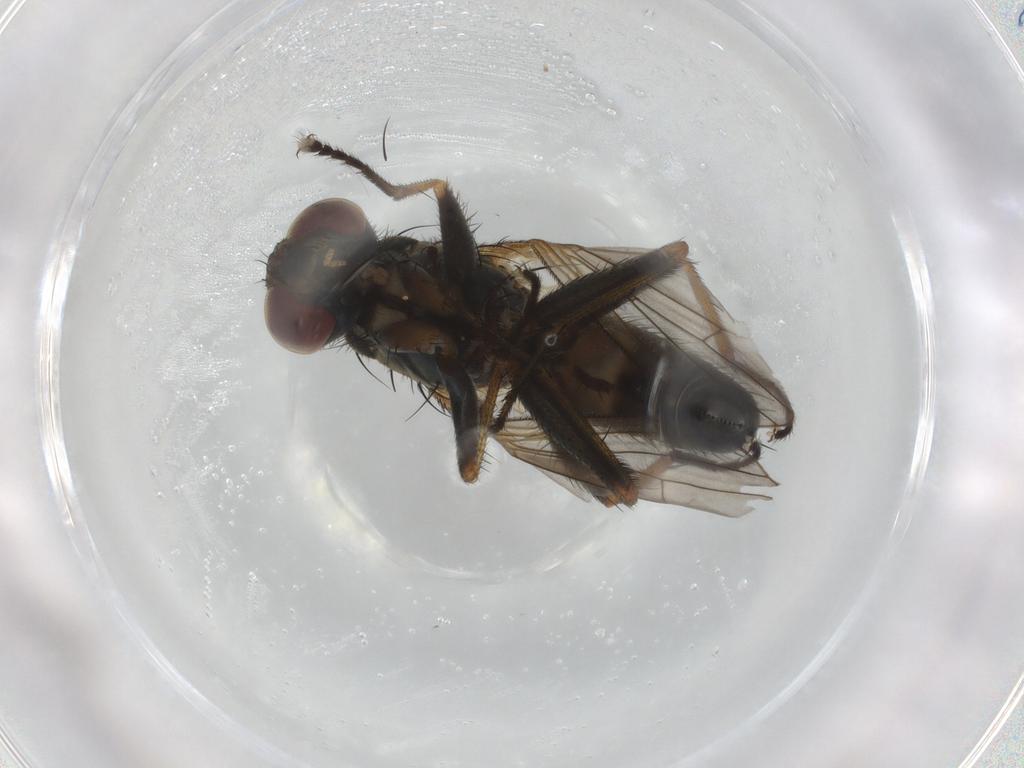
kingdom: Animalia
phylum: Arthropoda
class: Insecta
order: Diptera
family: Muscidae
